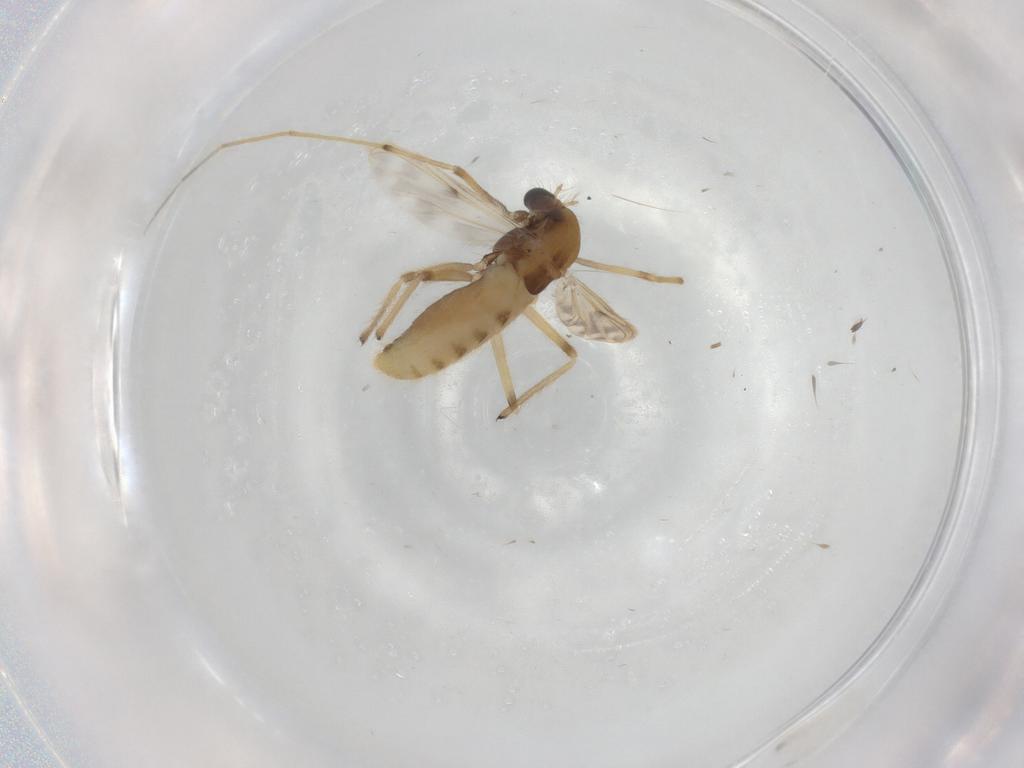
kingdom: Animalia
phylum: Arthropoda
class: Insecta
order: Diptera
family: Chironomidae
